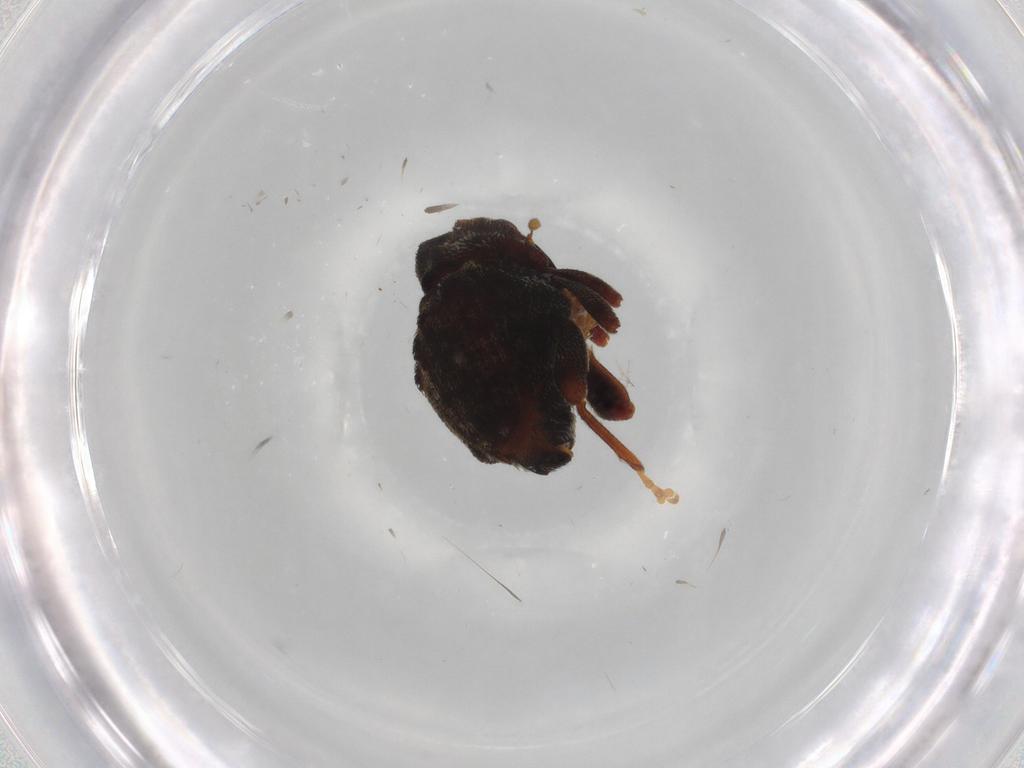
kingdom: Animalia
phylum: Arthropoda
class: Insecta
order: Coleoptera
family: Curculionidae
